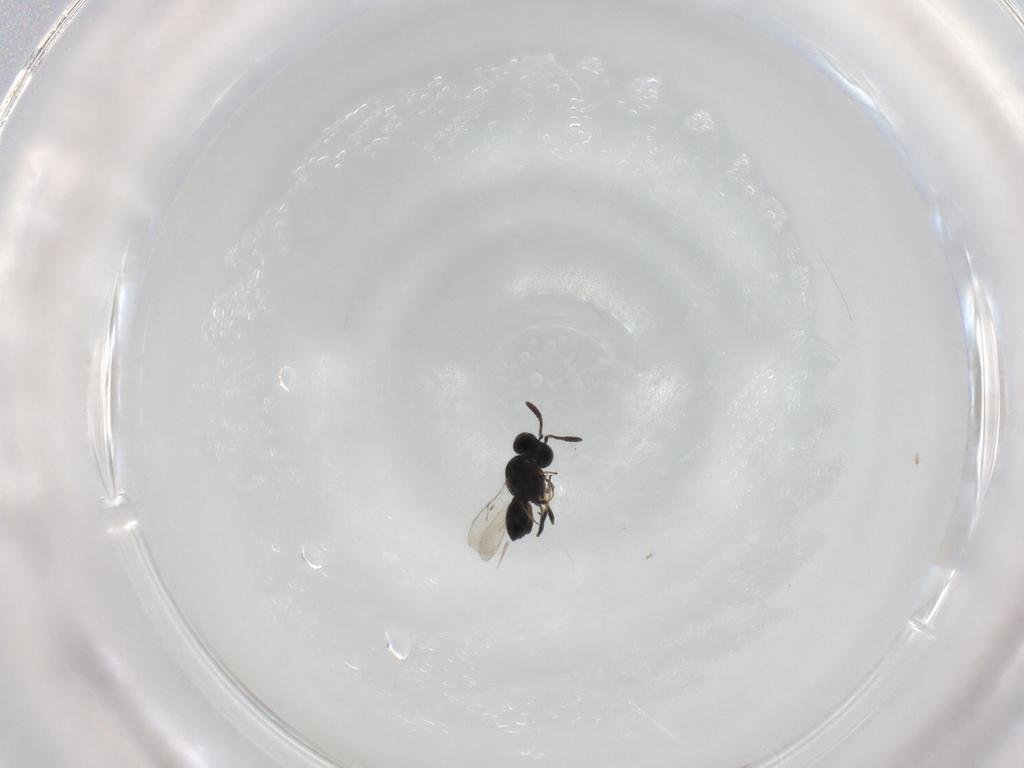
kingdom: Animalia
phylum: Arthropoda
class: Insecta
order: Hymenoptera
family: Scelionidae
